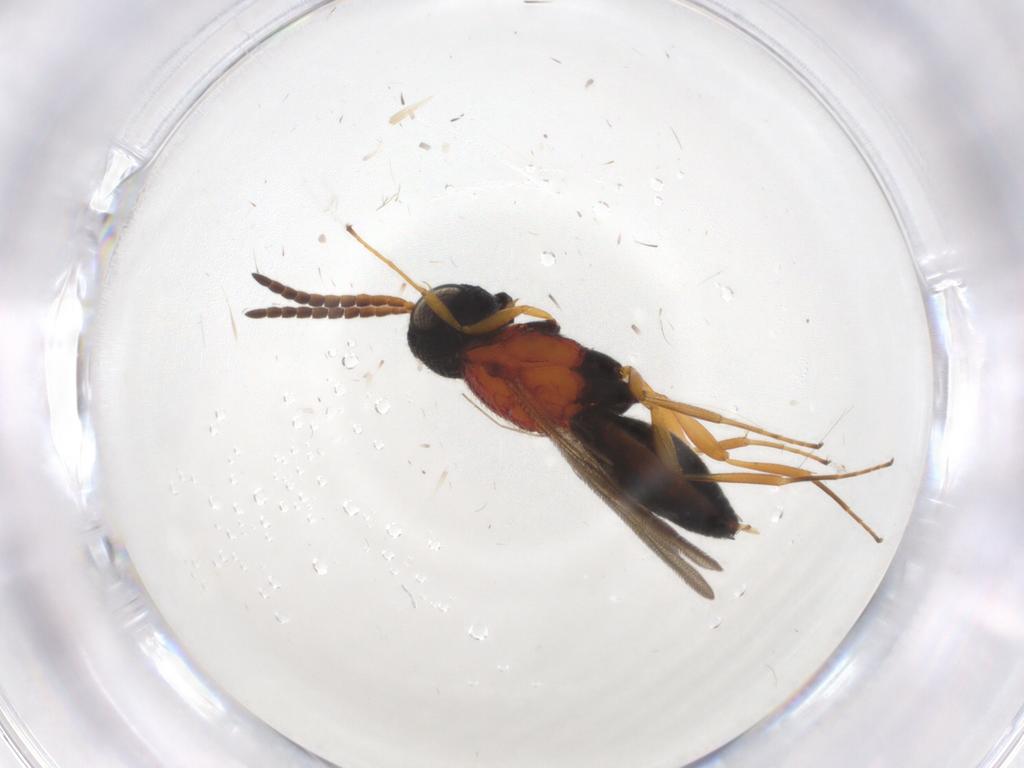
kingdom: Animalia
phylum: Arthropoda
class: Insecta
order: Hymenoptera
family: Scelionidae
